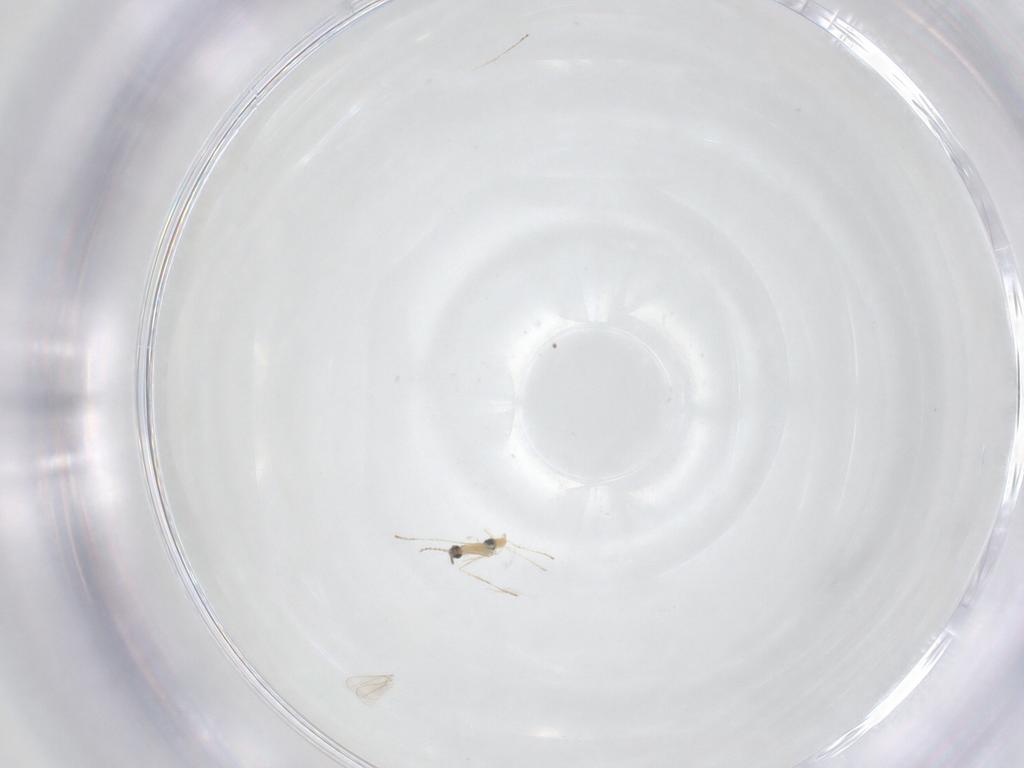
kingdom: Animalia
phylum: Arthropoda
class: Insecta
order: Diptera
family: Cecidomyiidae
